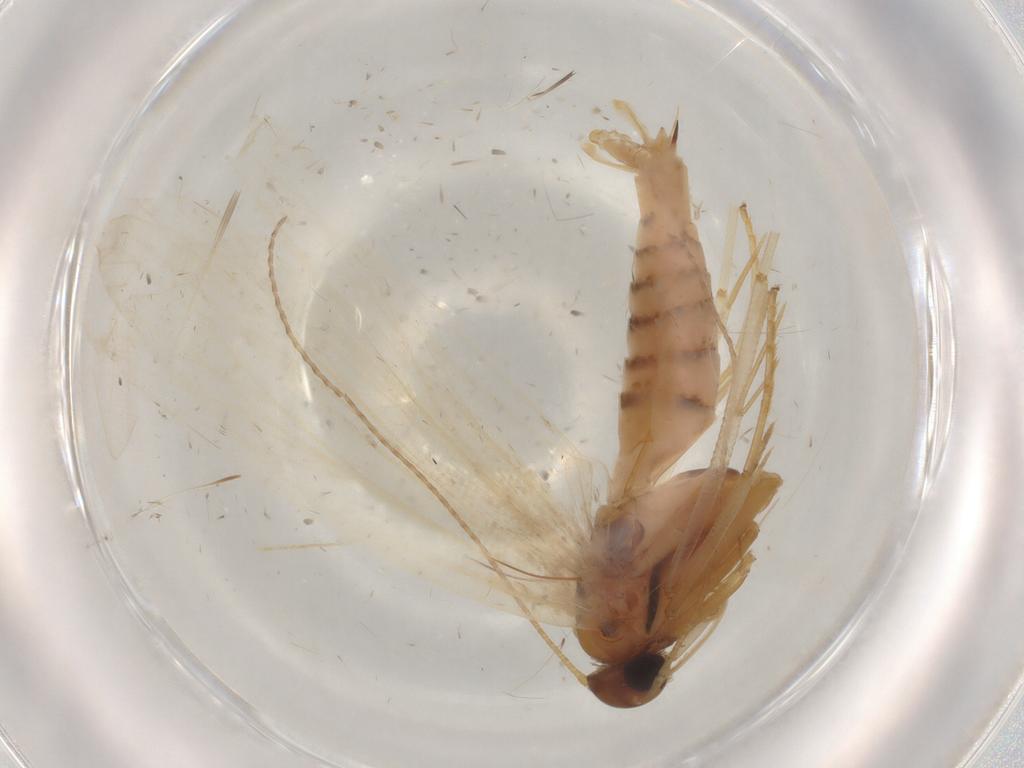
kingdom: Animalia
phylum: Arthropoda
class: Insecta
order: Lepidoptera
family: Gelechiidae
